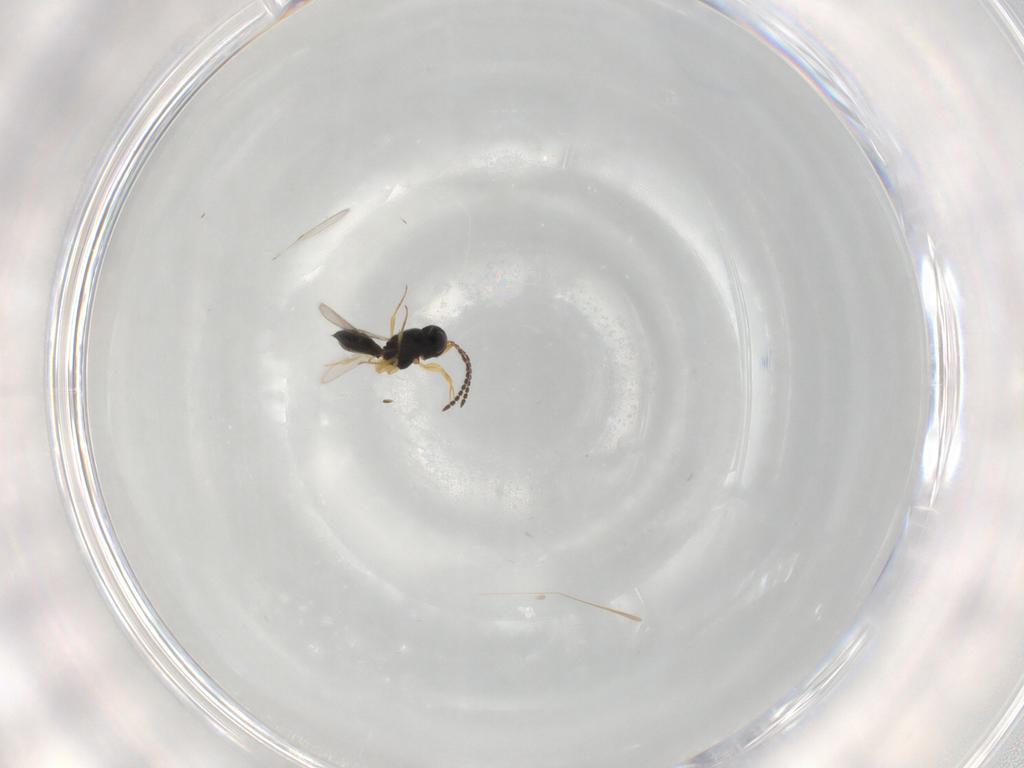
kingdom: Animalia
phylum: Arthropoda
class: Insecta
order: Hymenoptera
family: Scelionidae
